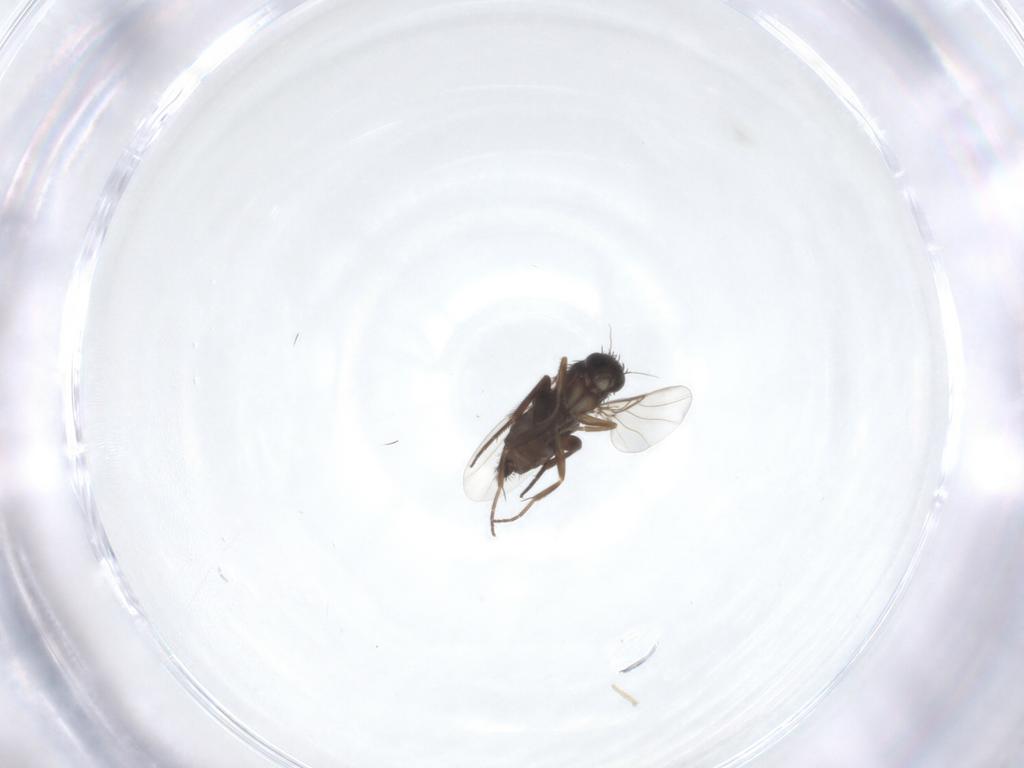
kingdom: Animalia
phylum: Arthropoda
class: Insecta
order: Diptera
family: Phoridae
